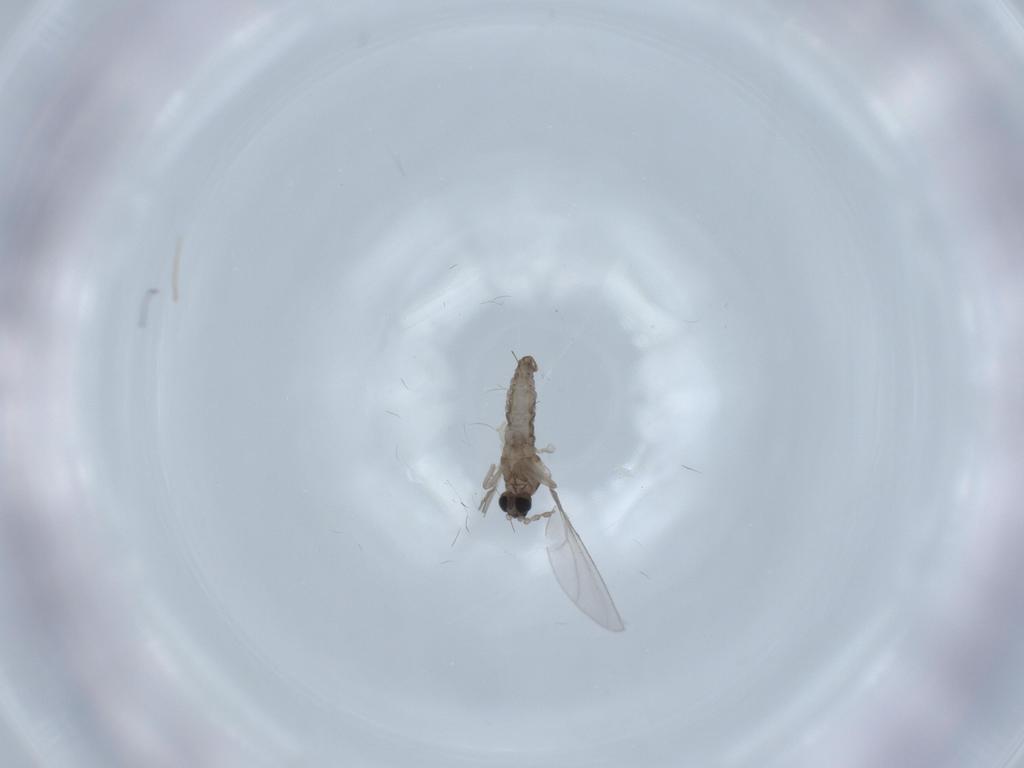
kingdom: Animalia
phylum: Arthropoda
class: Insecta
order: Diptera
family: Cecidomyiidae
